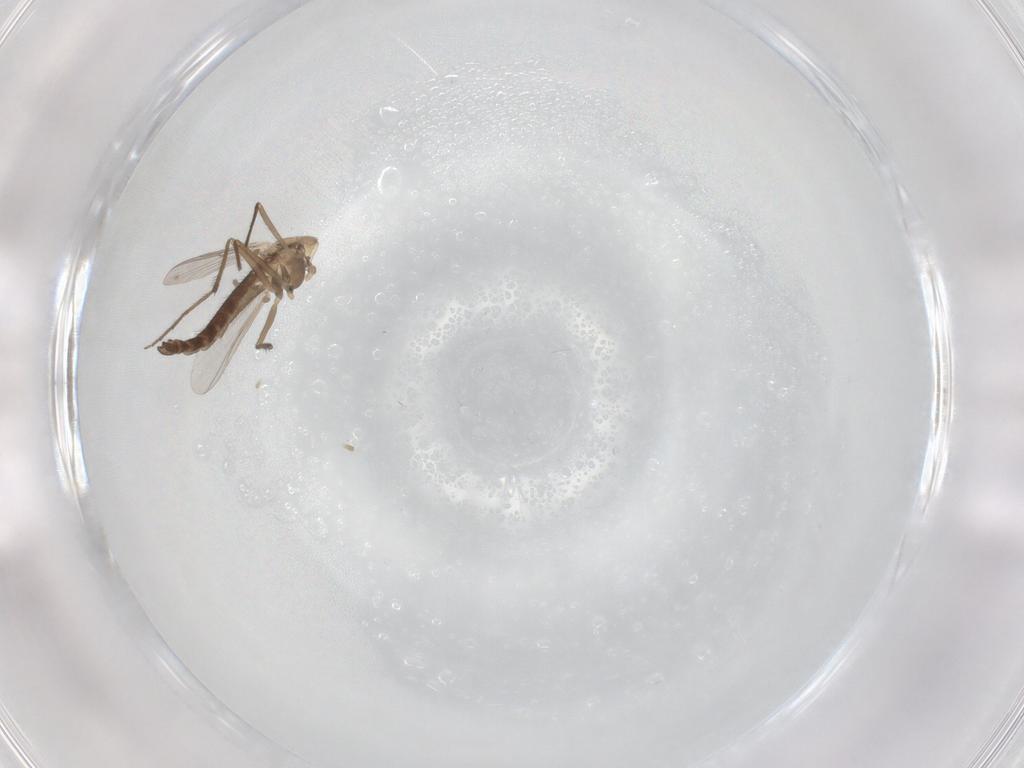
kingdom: Animalia
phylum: Arthropoda
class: Insecta
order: Diptera
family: Chironomidae
